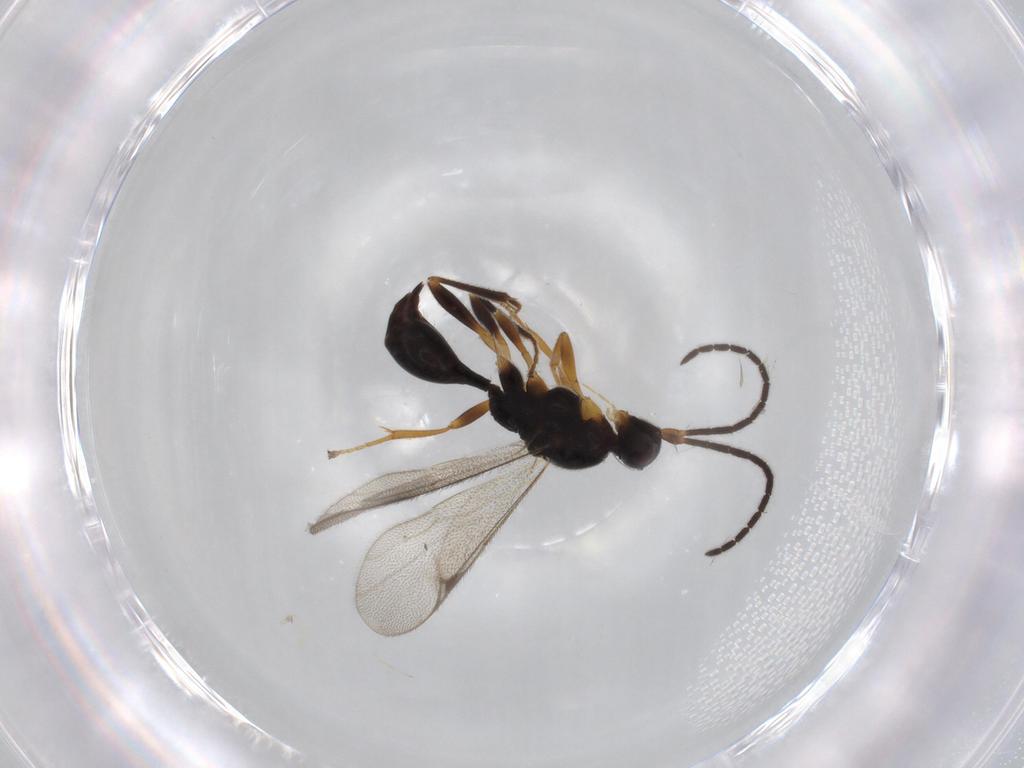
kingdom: Animalia
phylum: Arthropoda
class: Insecta
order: Hymenoptera
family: Proctotrupidae
